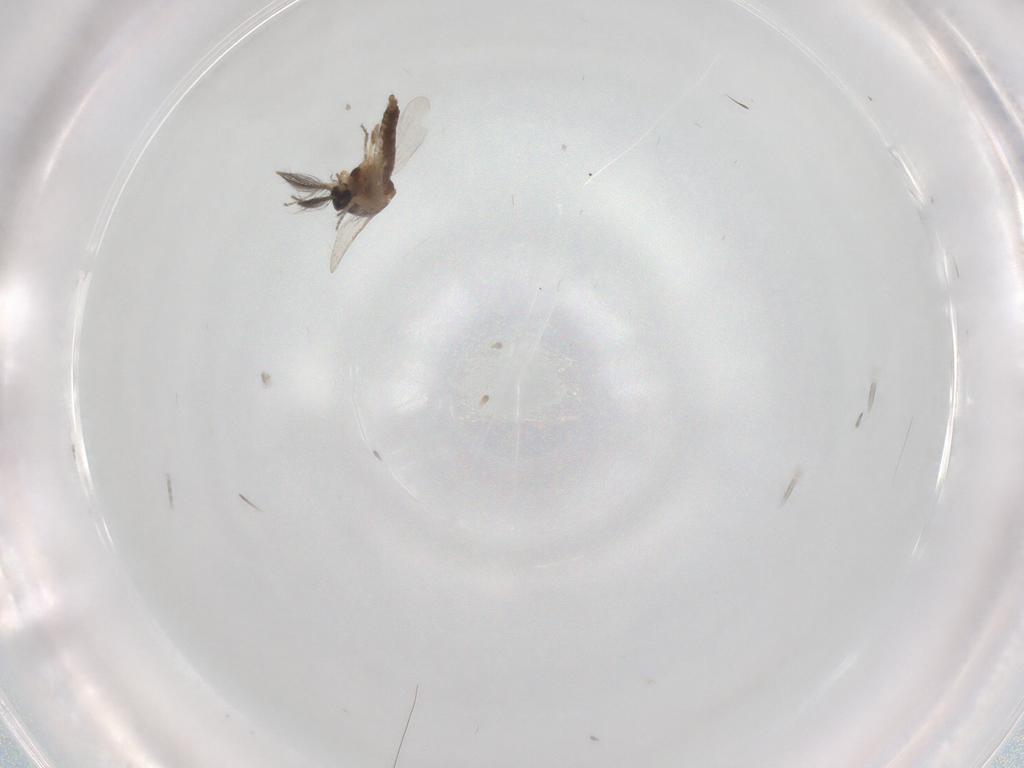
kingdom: Animalia
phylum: Arthropoda
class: Insecta
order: Diptera
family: Ceratopogonidae
